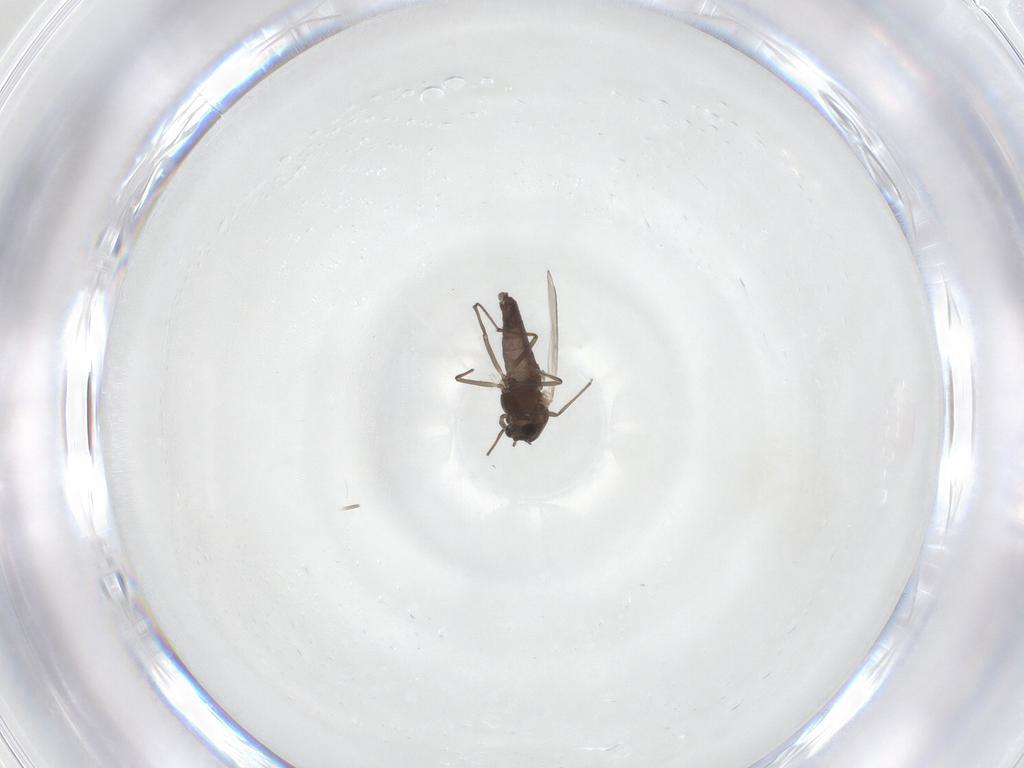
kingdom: Animalia
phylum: Arthropoda
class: Insecta
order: Diptera
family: Chironomidae
